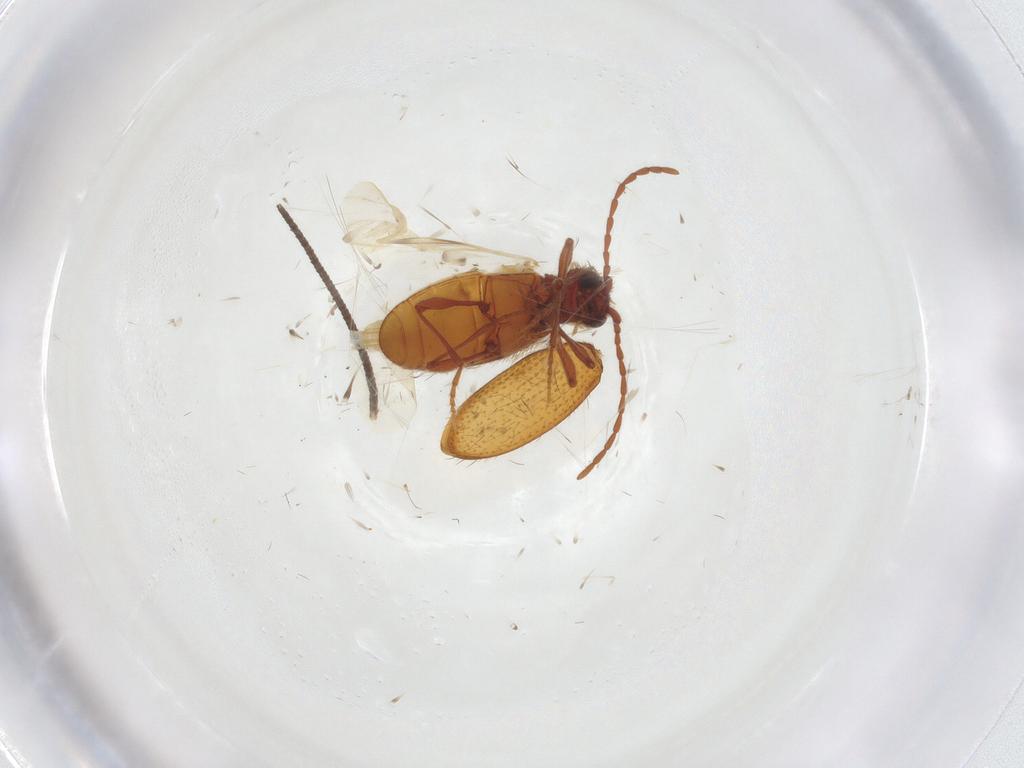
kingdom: Animalia
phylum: Arthropoda
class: Insecta
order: Coleoptera
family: Ptinidae
